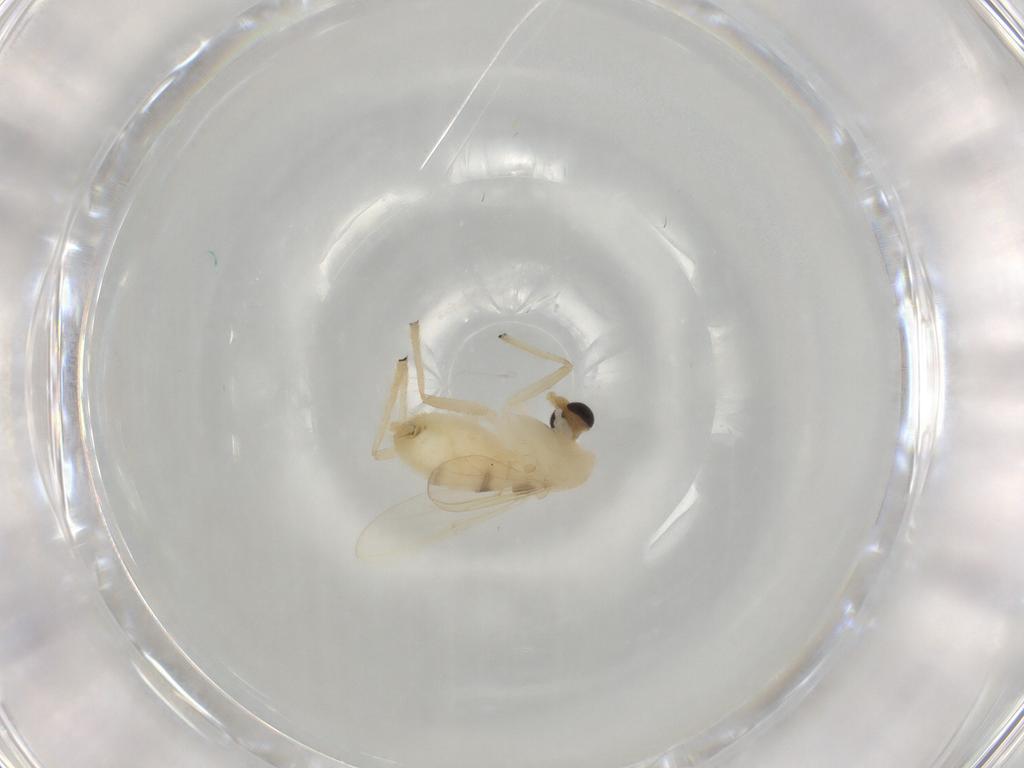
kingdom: Animalia
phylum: Arthropoda
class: Insecta
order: Diptera
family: Chironomidae
